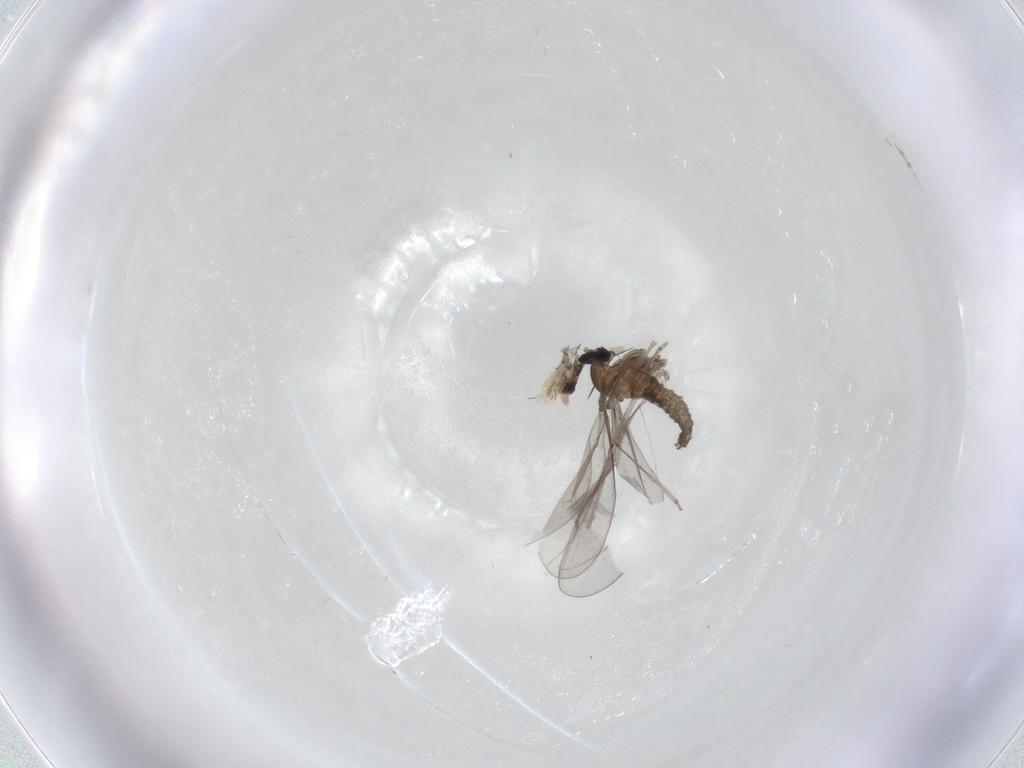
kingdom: Animalia
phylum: Arthropoda
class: Insecta
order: Diptera
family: Cecidomyiidae
